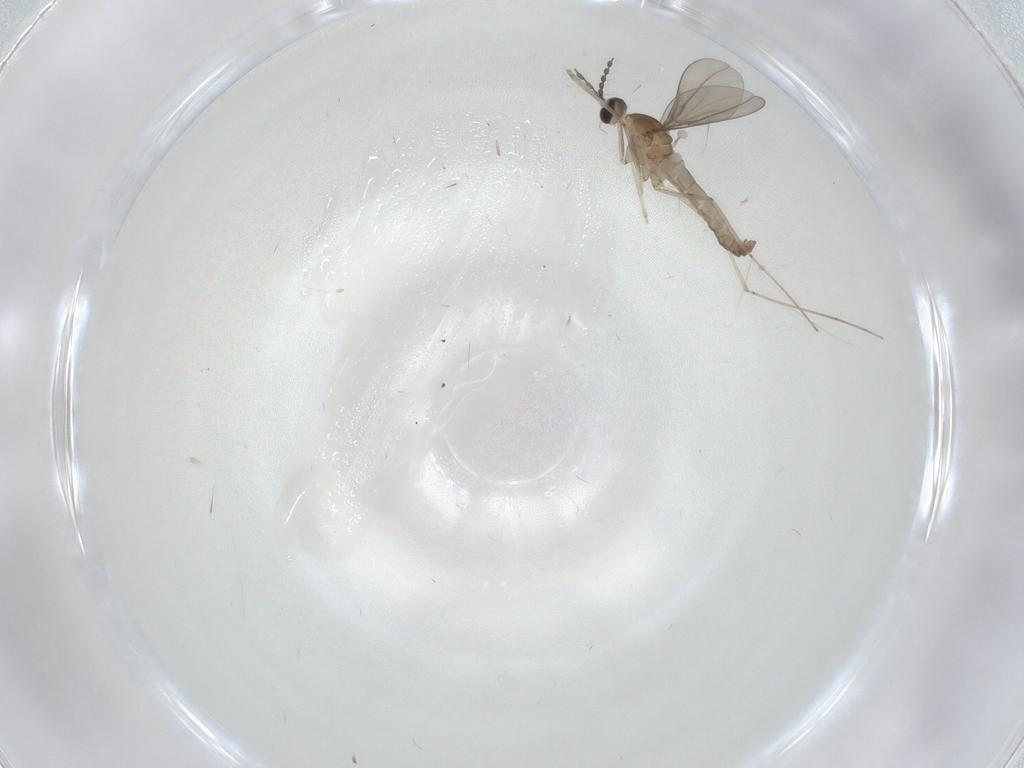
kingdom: Animalia
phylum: Arthropoda
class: Insecta
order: Diptera
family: Cecidomyiidae
